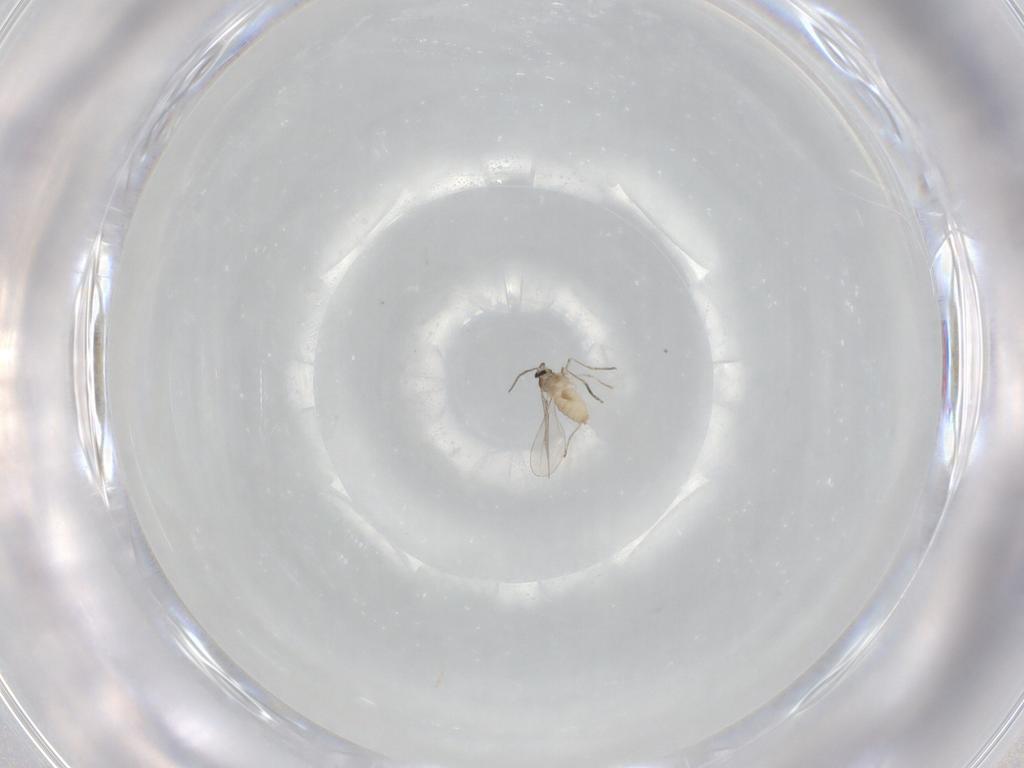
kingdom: Animalia
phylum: Arthropoda
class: Insecta
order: Diptera
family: Cecidomyiidae
